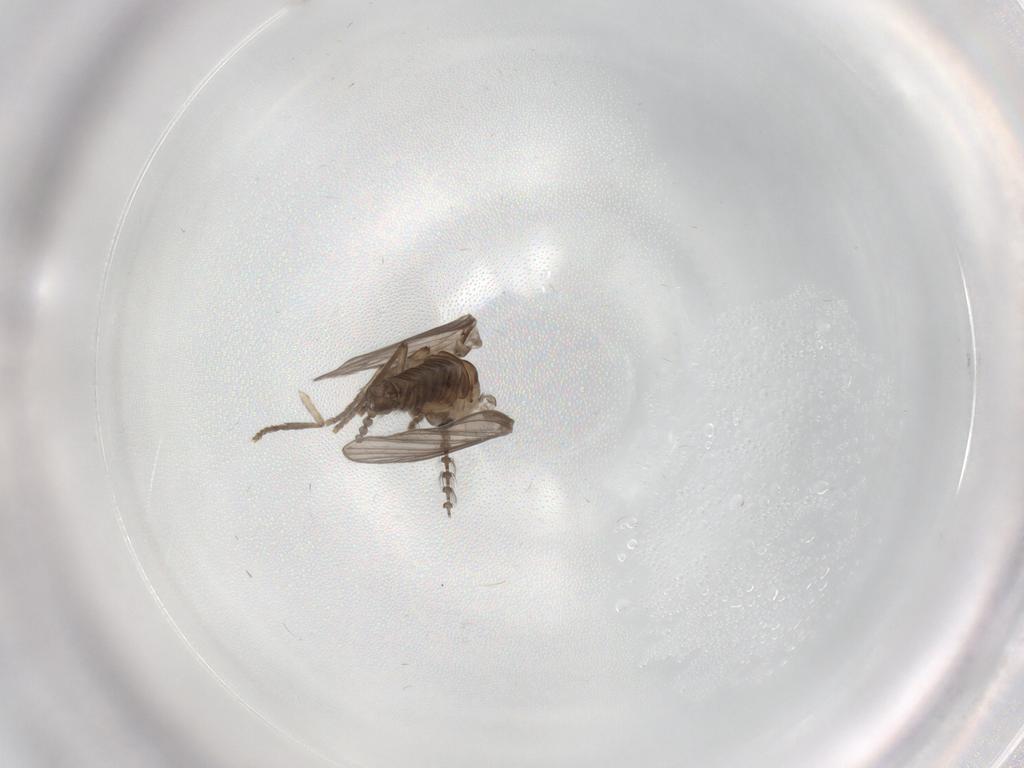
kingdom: Animalia
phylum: Arthropoda
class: Insecta
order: Diptera
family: Cecidomyiidae
